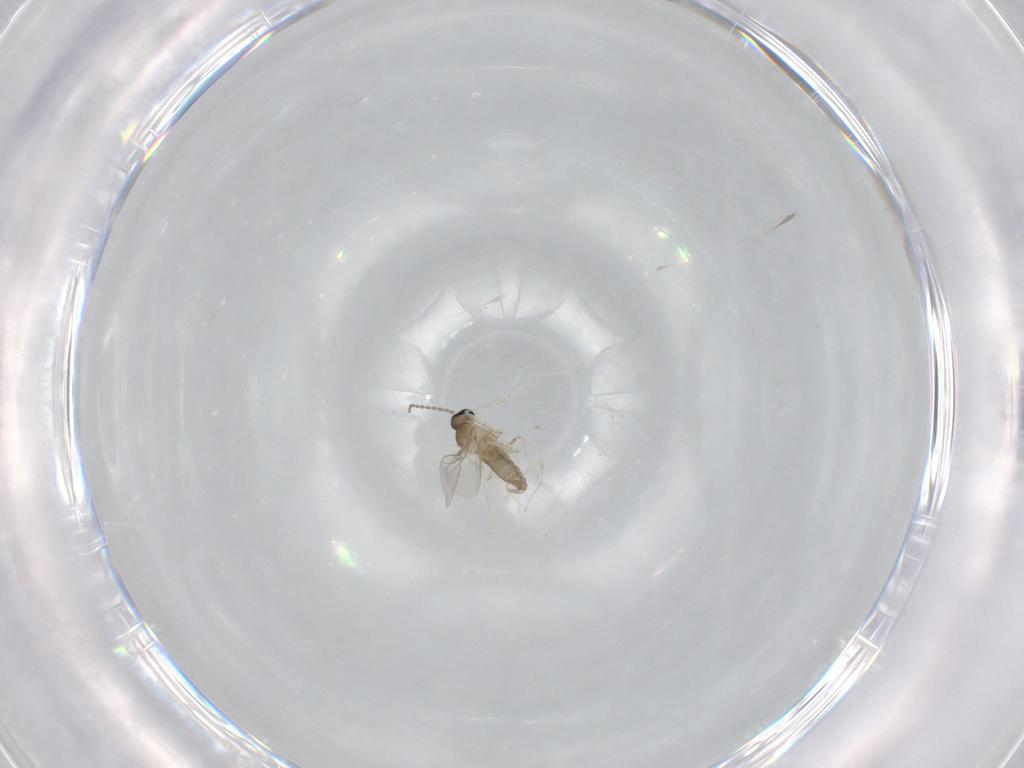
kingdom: Animalia
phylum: Arthropoda
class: Insecta
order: Diptera
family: Cecidomyiidae
